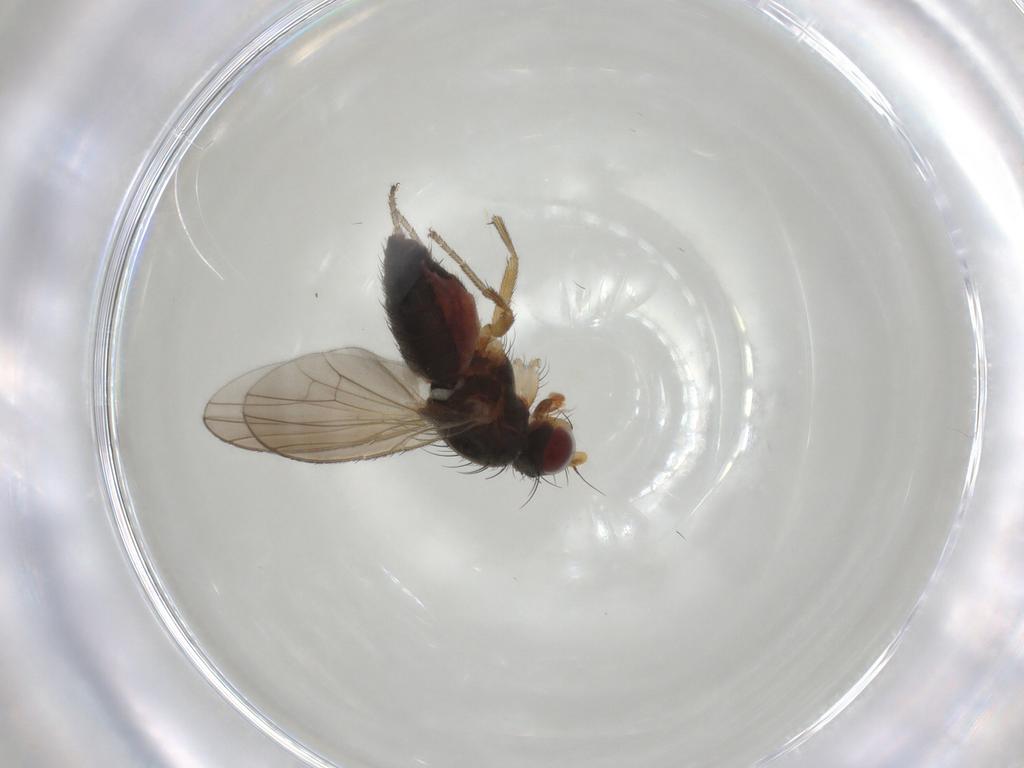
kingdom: Animalia
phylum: Arthropoda
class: Insecta
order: Diptera
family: Heleomyzidae
